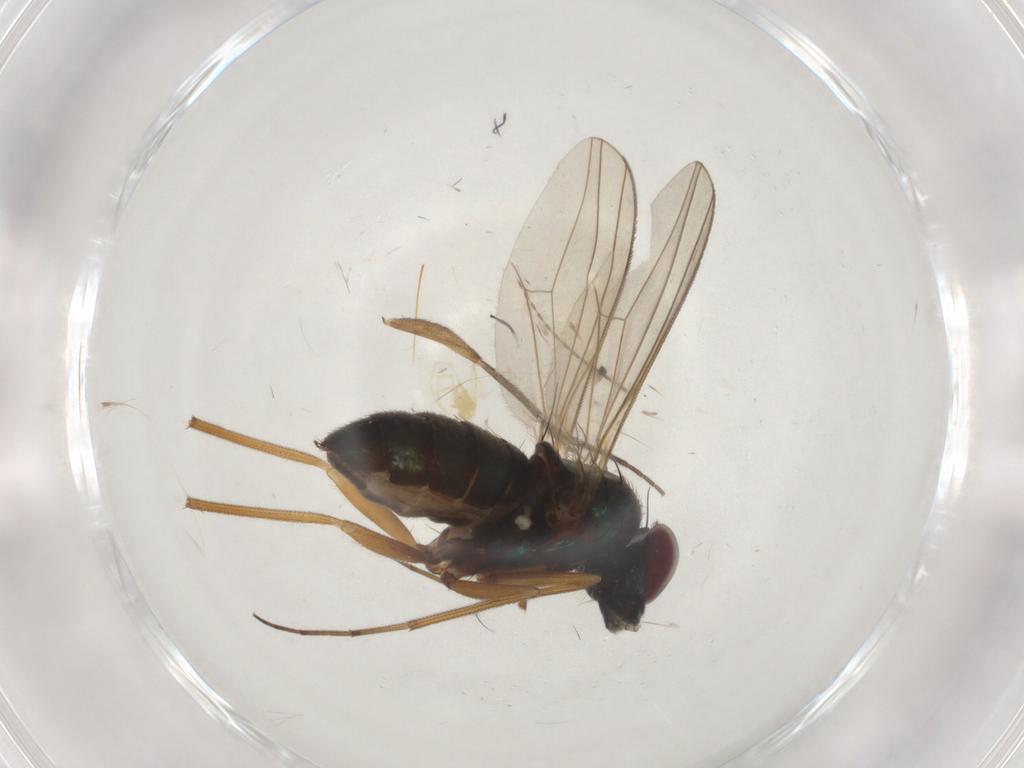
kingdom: Animalia
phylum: Arthropoda
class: Insecta
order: Diptera
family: Dolichopodidae
